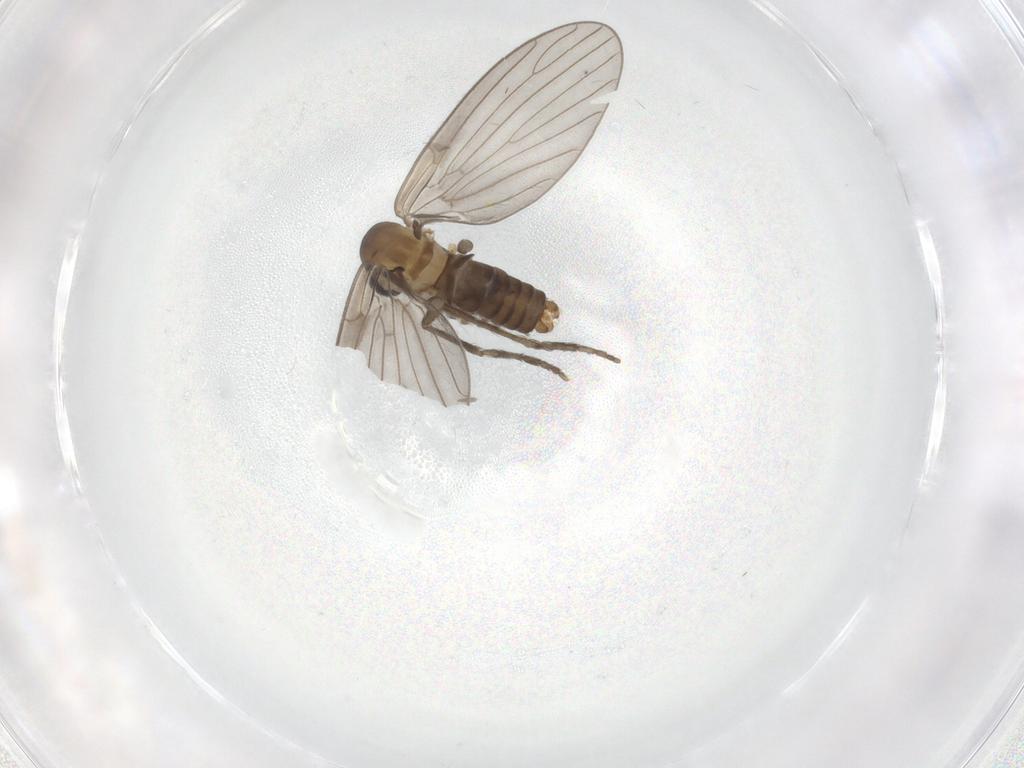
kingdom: Animalia
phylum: Arthropoda
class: Insecta
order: Diptera
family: Psychodidae
